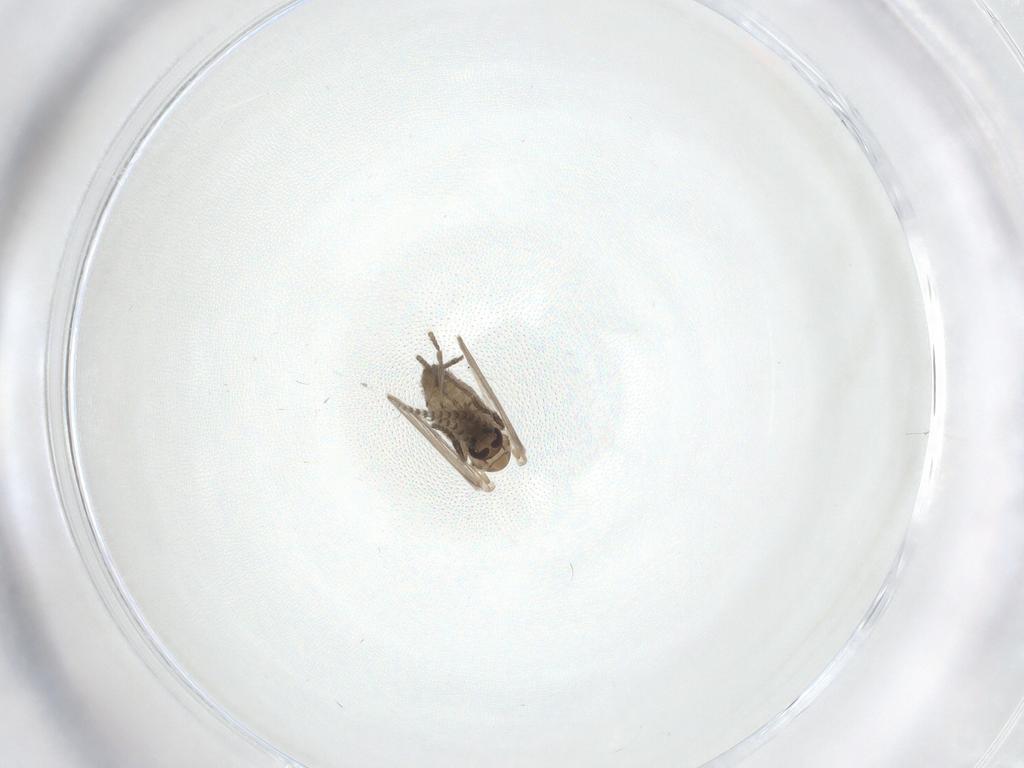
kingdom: Animalia
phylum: Arthropoda
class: Insecta
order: Diptera
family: Psychodidae
